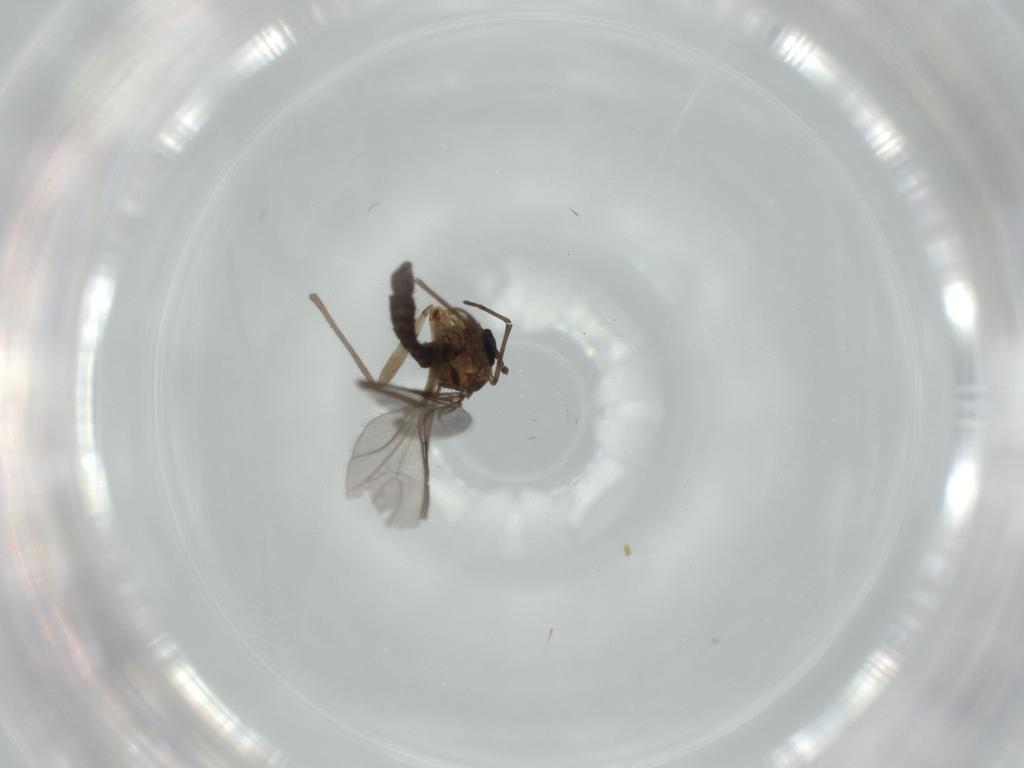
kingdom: Animalia
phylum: Arthropoda
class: Insecta
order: Diptera
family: Sciaridae
